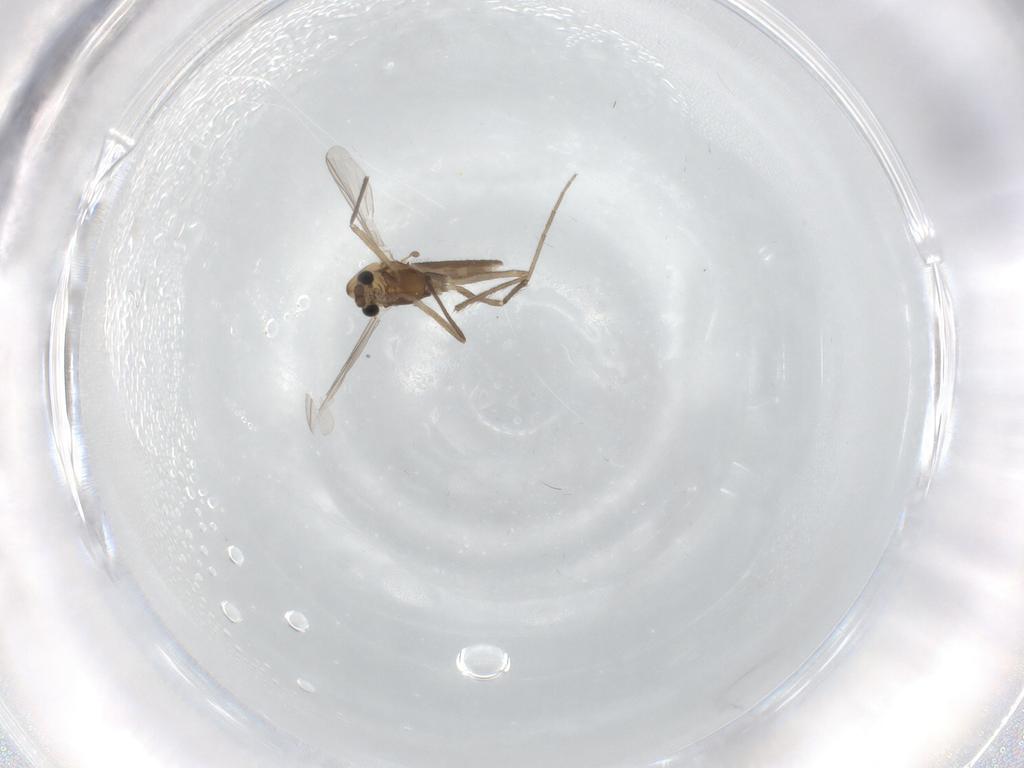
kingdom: Animalia
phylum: Arthropoda
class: Insecta
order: Diptera
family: Chironomidae
